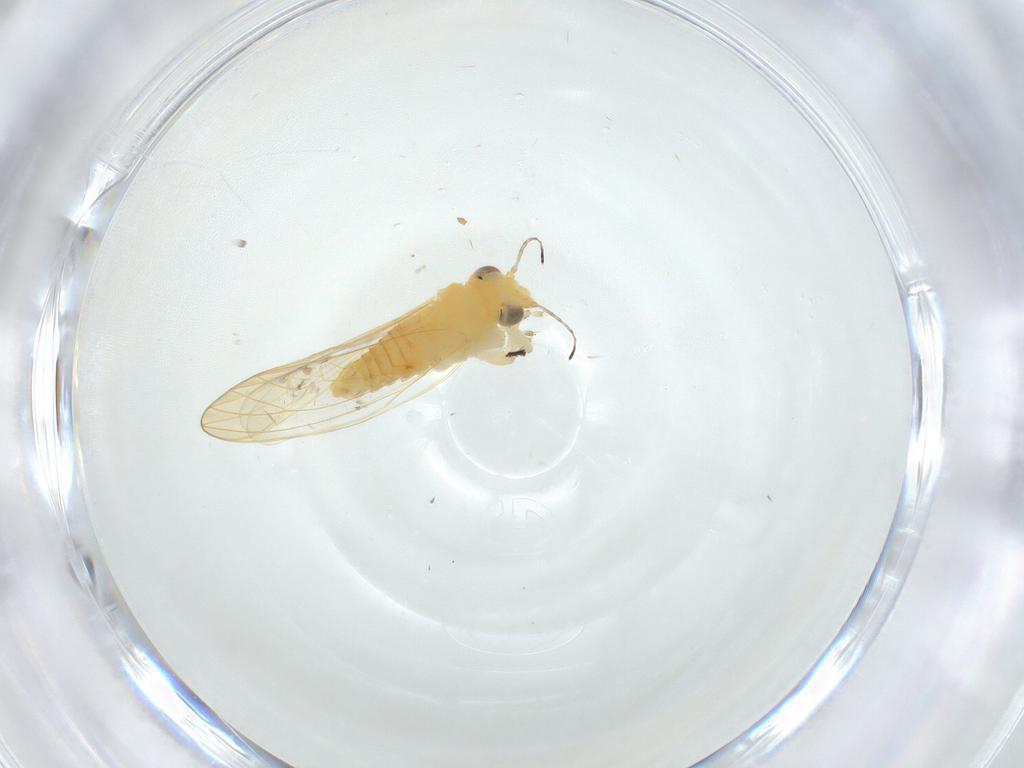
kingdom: Animalia
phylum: Arthropoda
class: Insecta
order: Hemiptera
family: Aphalaridae
